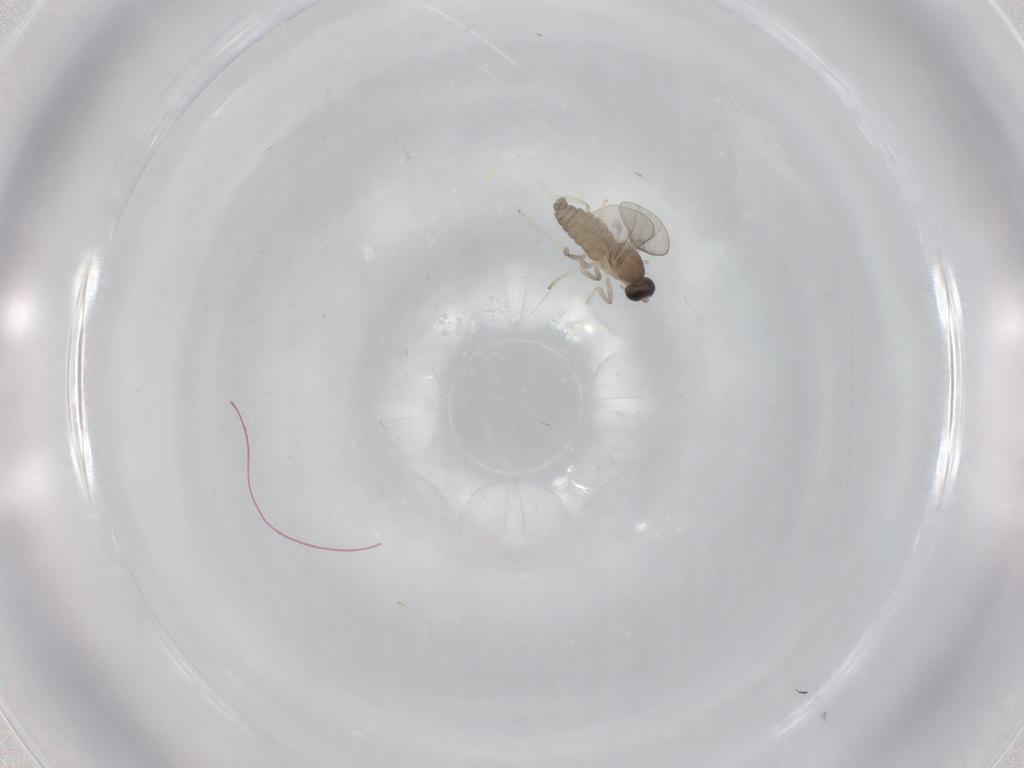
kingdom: Animalia
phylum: Arthropoda
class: Insecta
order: Diptera
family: Cecidomyiidae
